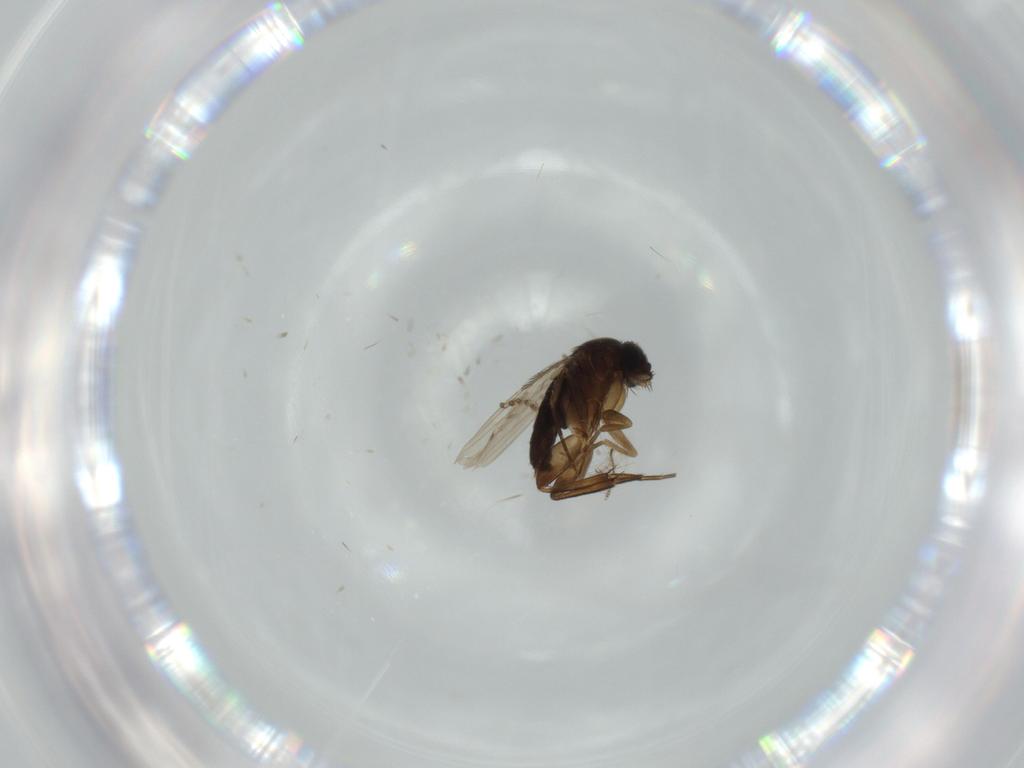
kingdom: Animalia
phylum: Arthropoda
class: Insecta
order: Diptera
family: Phoridae
